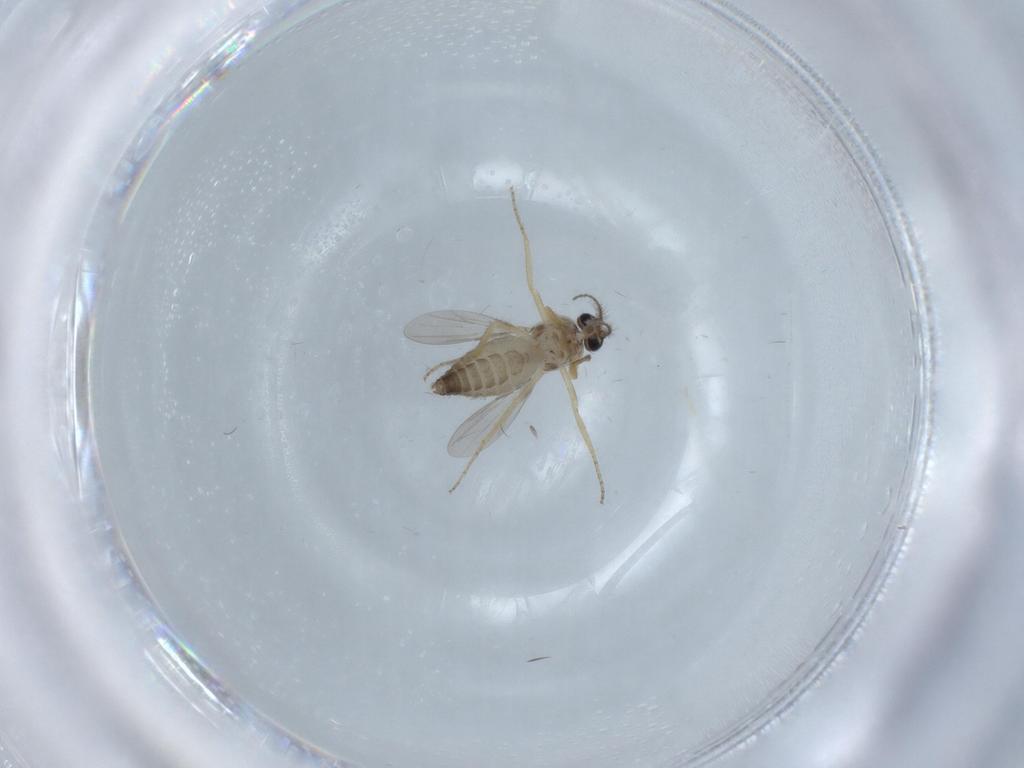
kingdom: Animalia
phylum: Arthropoda
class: Insecta
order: Diptera
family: Ceratopogonidae
